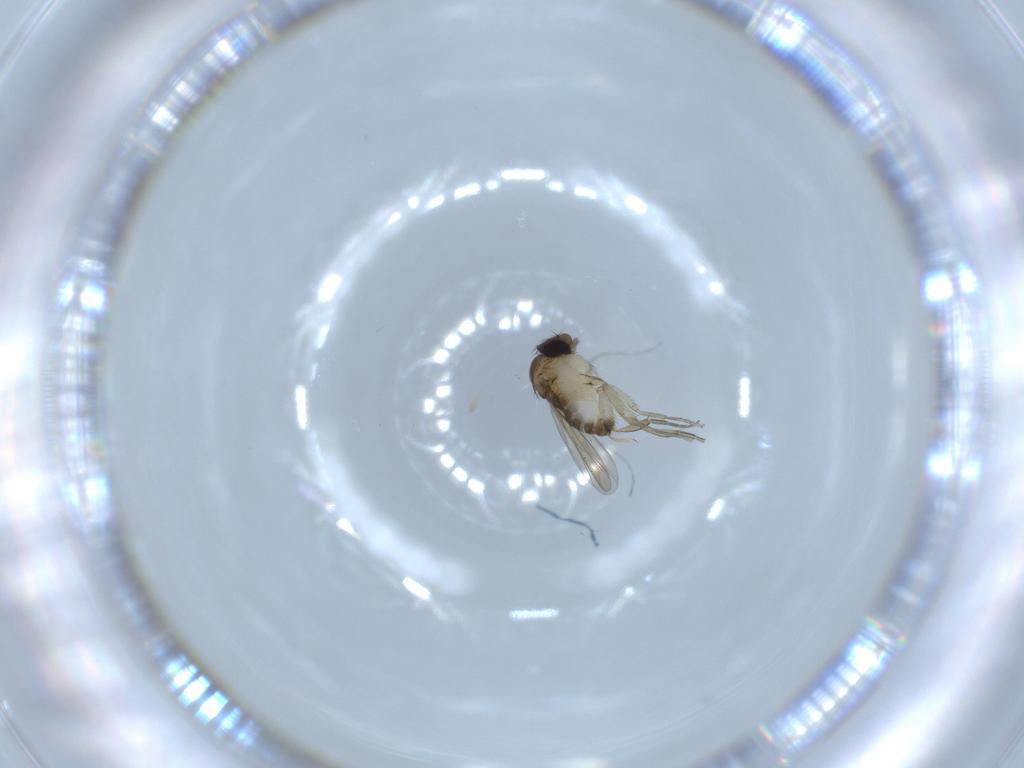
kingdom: Animalia
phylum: Arthropoda
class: Insecta
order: Diptera
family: Phoridae
